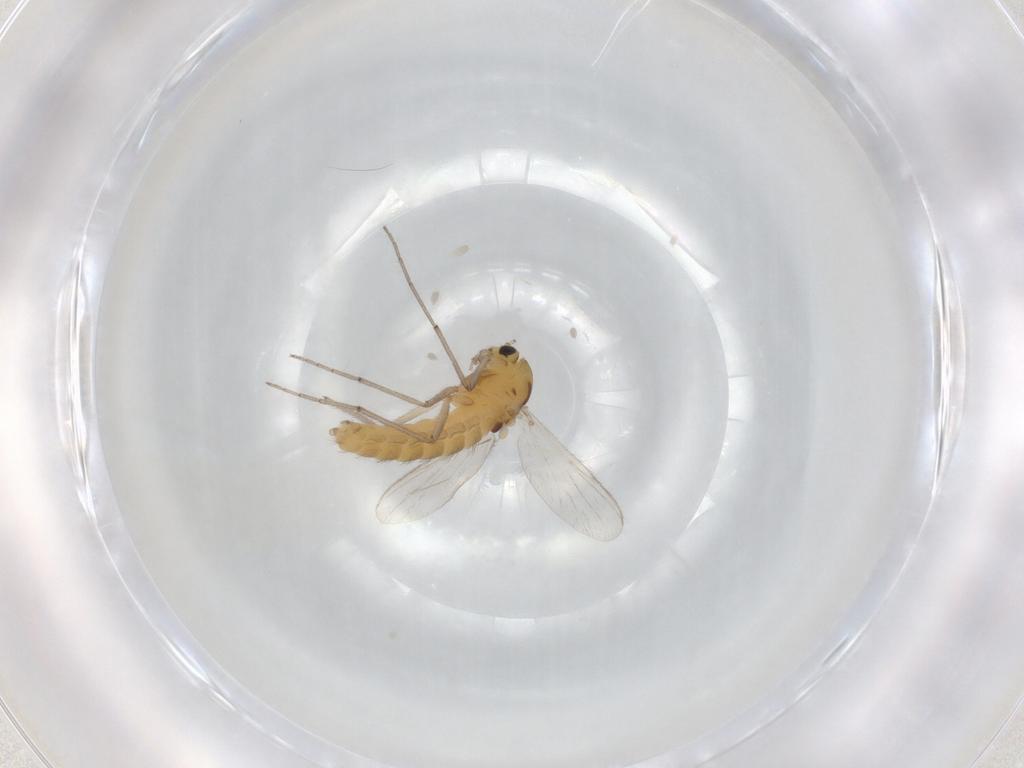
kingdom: Animalia
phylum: Arthropoda
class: Insecta
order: Diptera
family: Chironomidae
